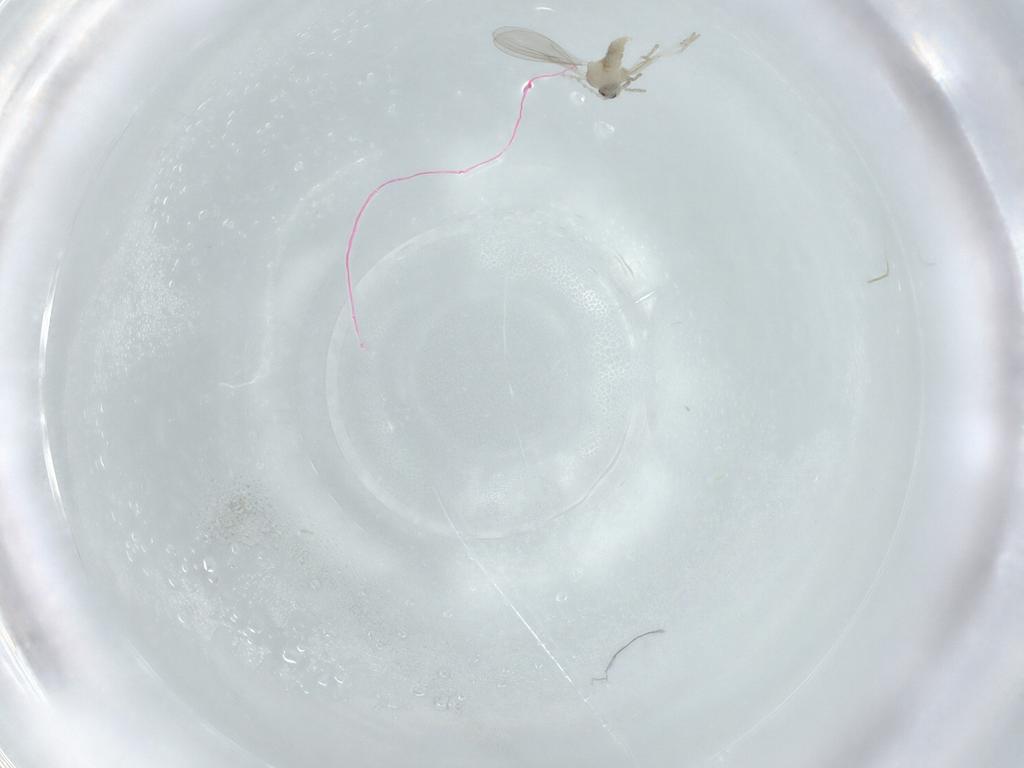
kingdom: Animalia
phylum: Arthropoda
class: Insecta
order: Diptera
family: Cecidomyiidae
